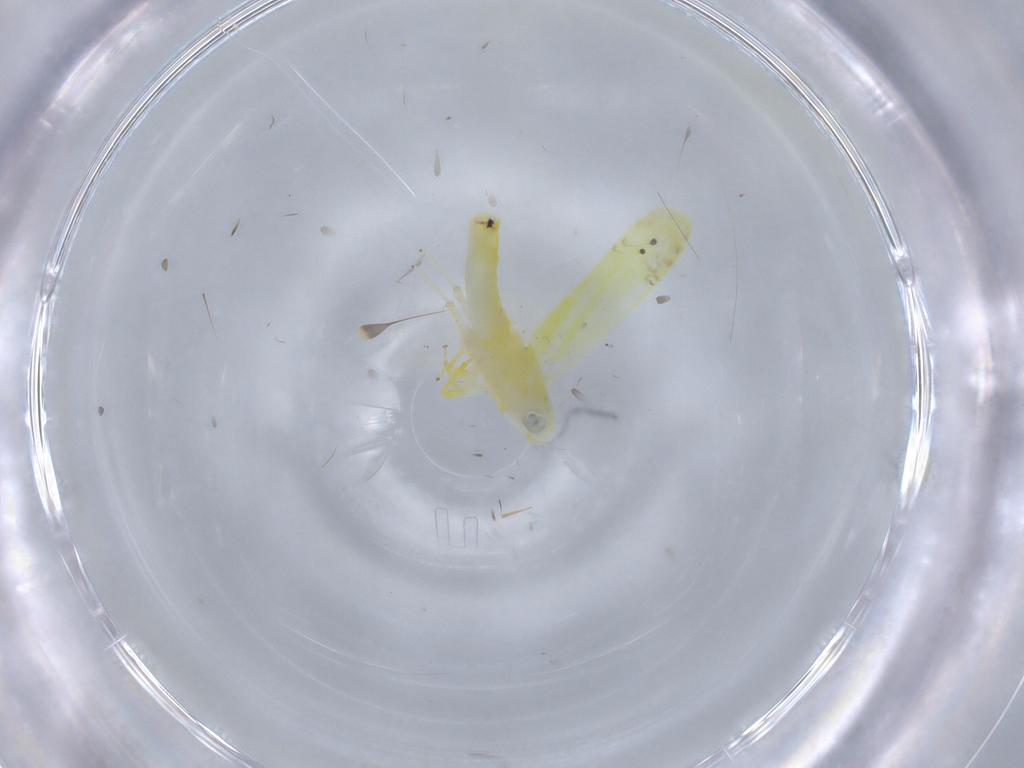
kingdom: Animalia
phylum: Arthropoda
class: Insecta
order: Hemiptera
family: Cicadellidae
